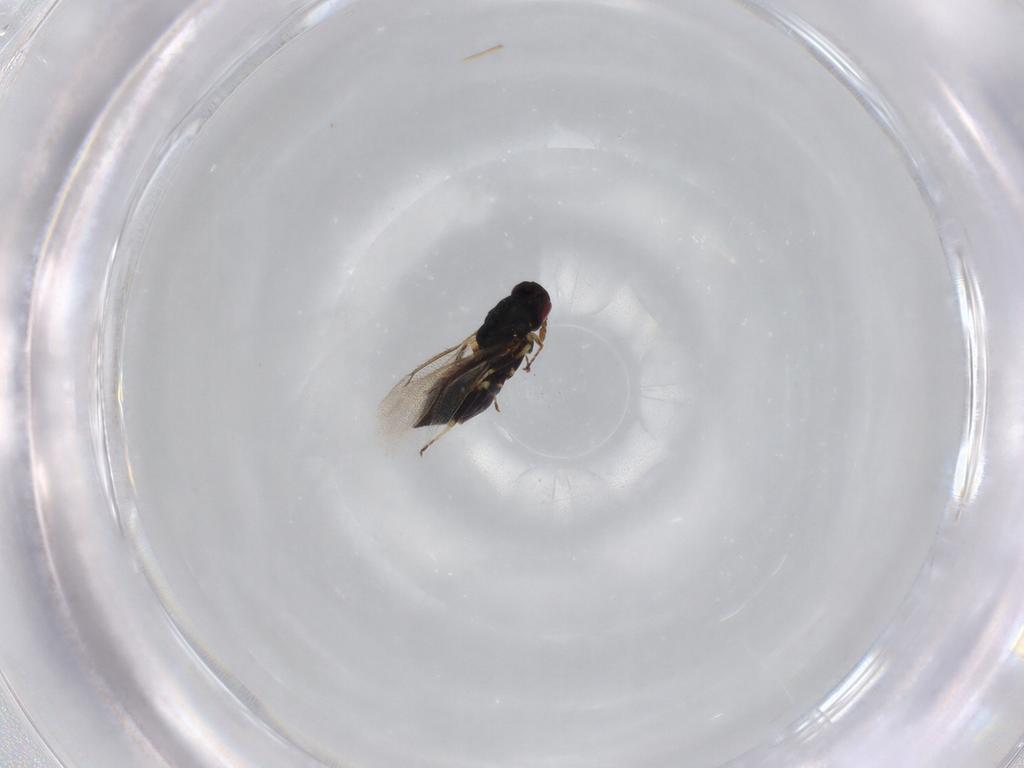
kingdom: Animalia
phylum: Arthropoda
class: Insecta
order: Hymenoptera
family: Eulophidae
